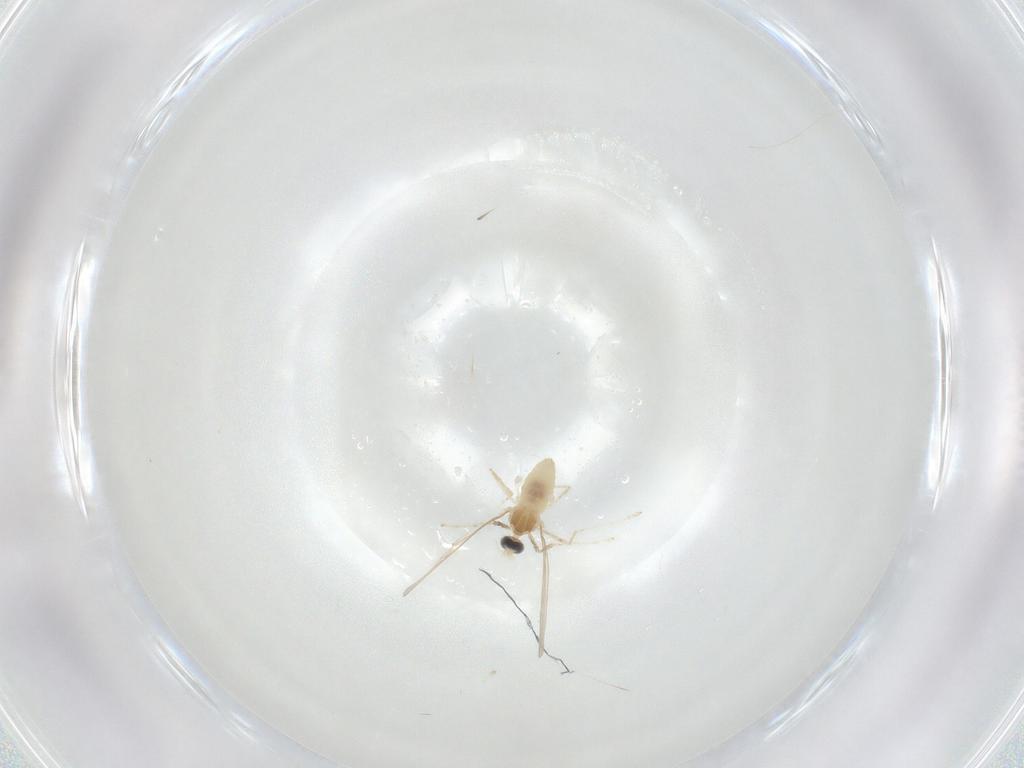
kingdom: Animalia
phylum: Arthropoda
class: Insecta
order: Diptera
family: Cecidomyiidae
